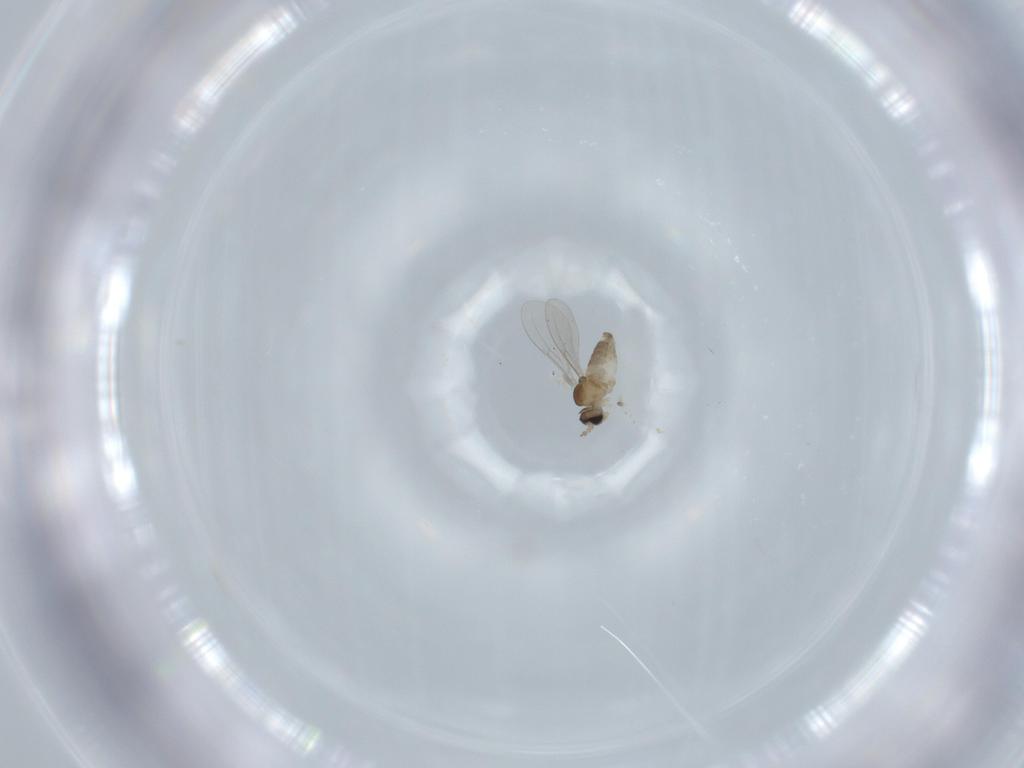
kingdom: Animalia
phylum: Arthropoda
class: Insecta
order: Diptera
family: Cecidomyiidae
